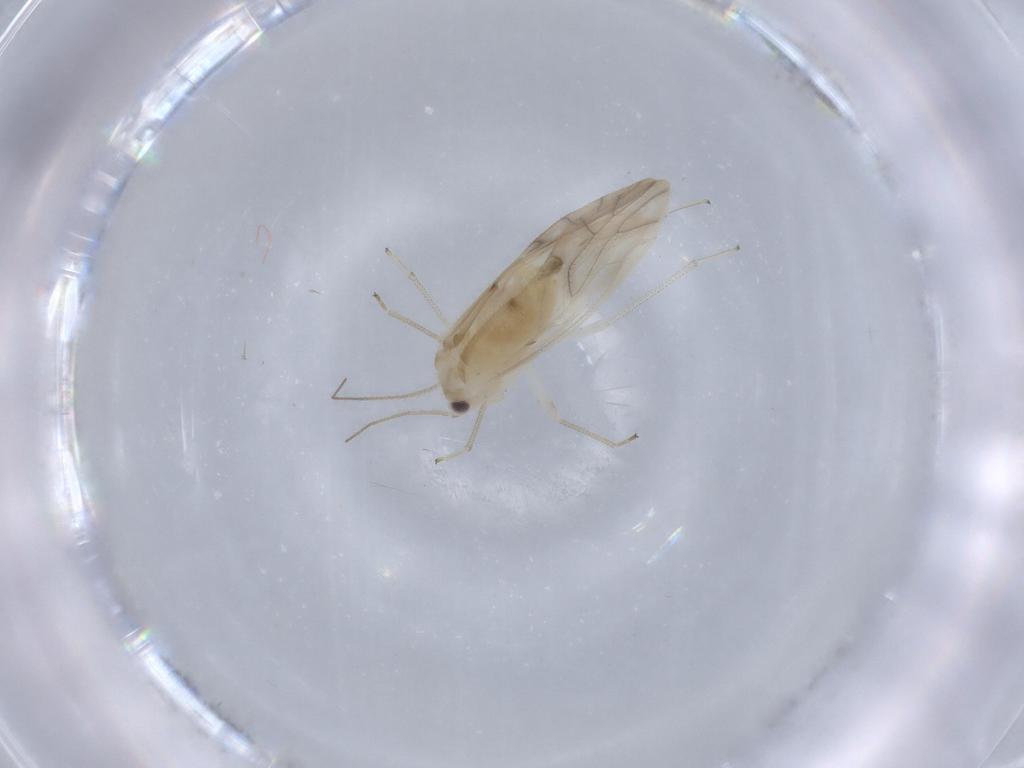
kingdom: Animalia
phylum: Arthropoda
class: Insecta
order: Psocodea
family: Caeciliusidae
